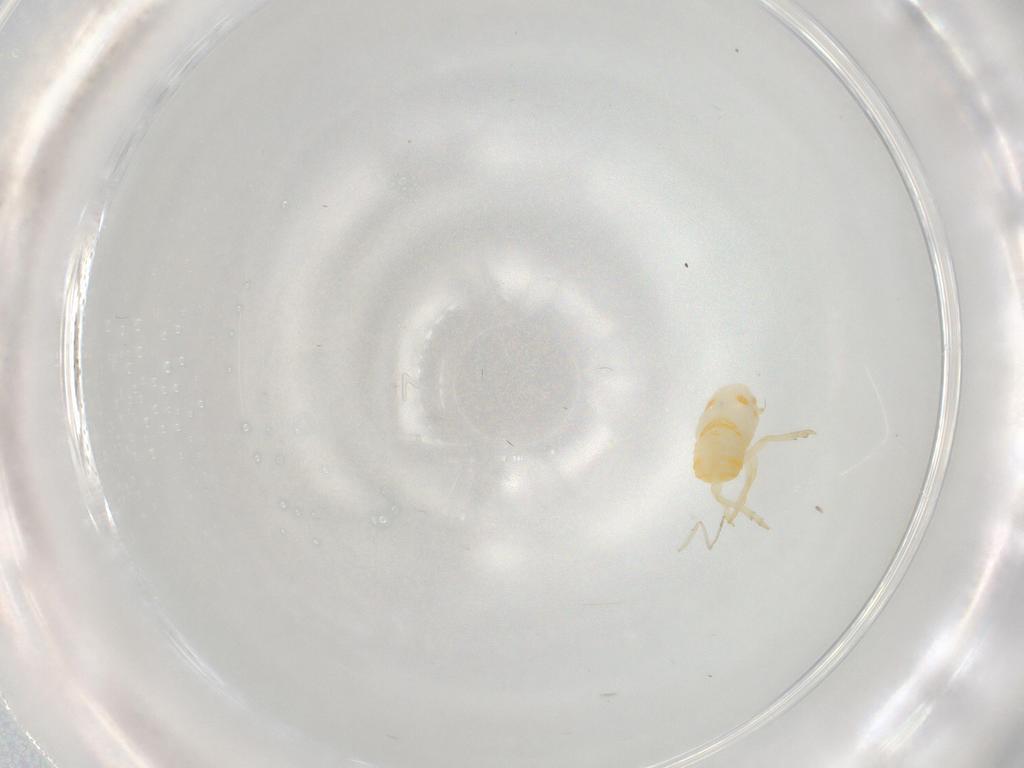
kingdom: Animalia
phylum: Arthropoda
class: Insecta
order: Hemiptera
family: Flatidae
